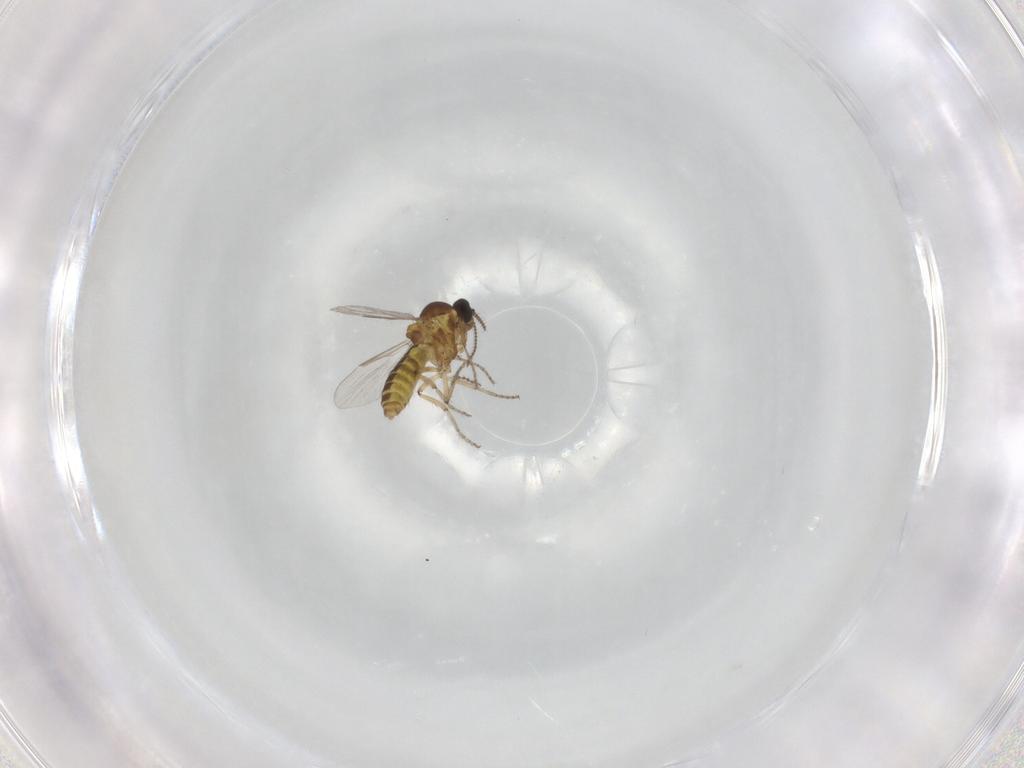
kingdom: Animalia
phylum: Arthropoda
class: Insecta
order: Diptera
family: Ceratopogonidae
